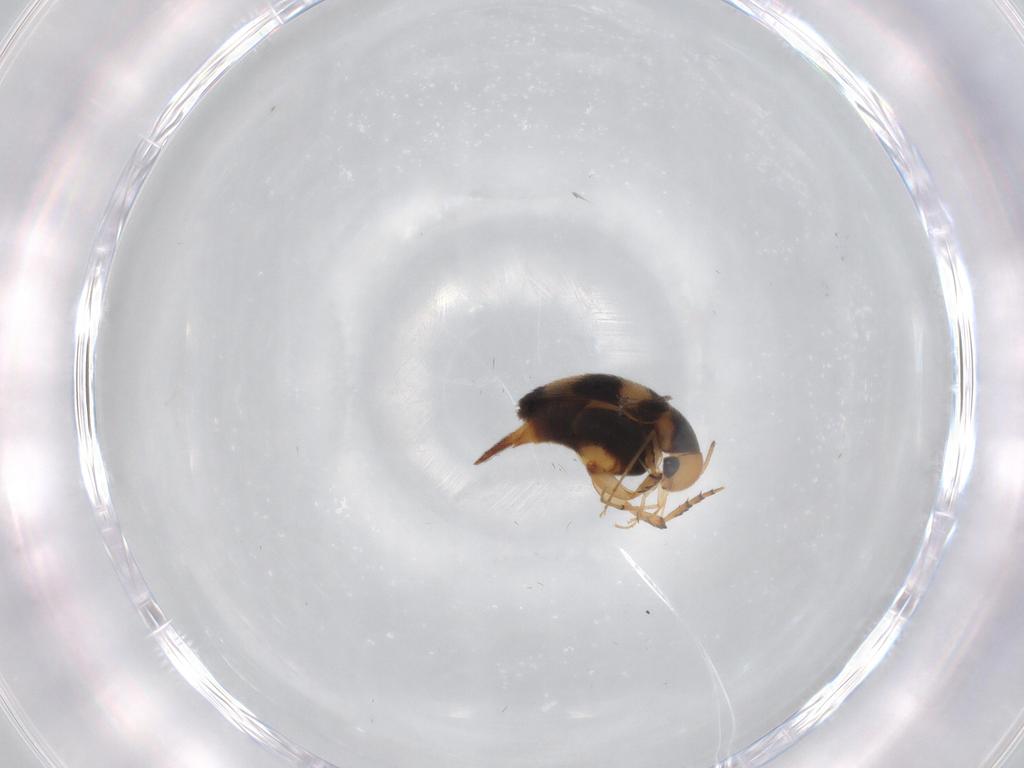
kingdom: Animalia
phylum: Arthropoda
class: Insecta
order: Coleoptera
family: Mordellidae
